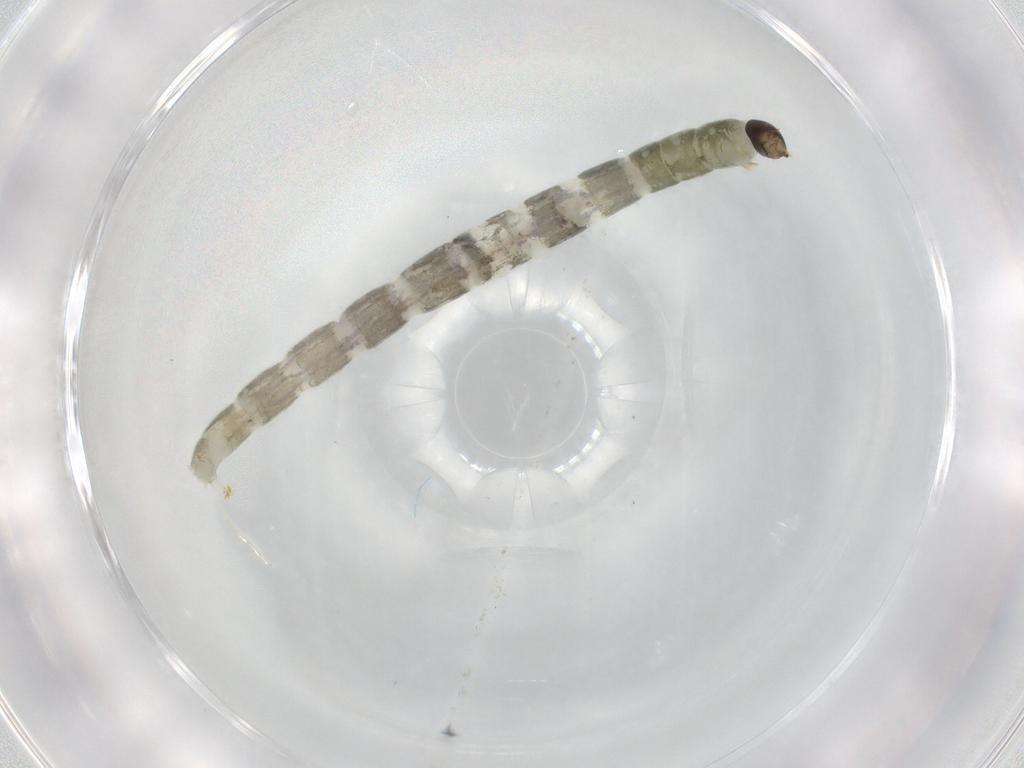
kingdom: Animalia
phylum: Arthropoda
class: Insecta
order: Diptera
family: Chironomidae
